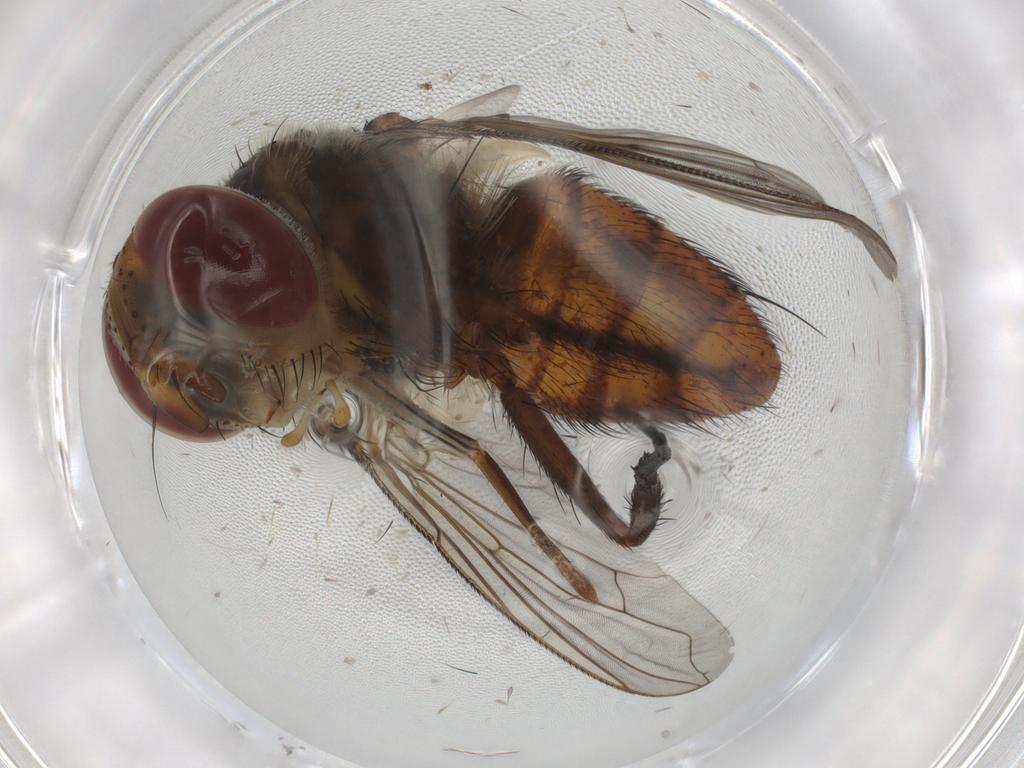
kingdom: Animalia
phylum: Arthropoda
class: Insecta
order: Diptera
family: Tachinidae
